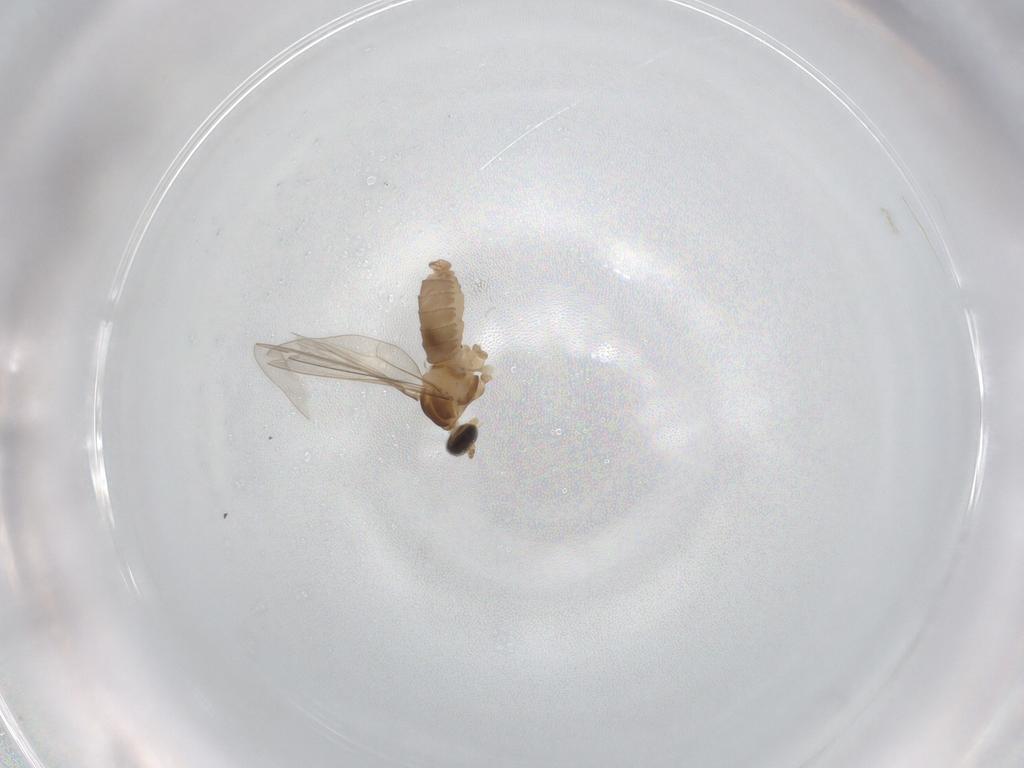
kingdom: Animalia
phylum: Arthropoda
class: Insecta
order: Diptera
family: Cecidomyiidae
